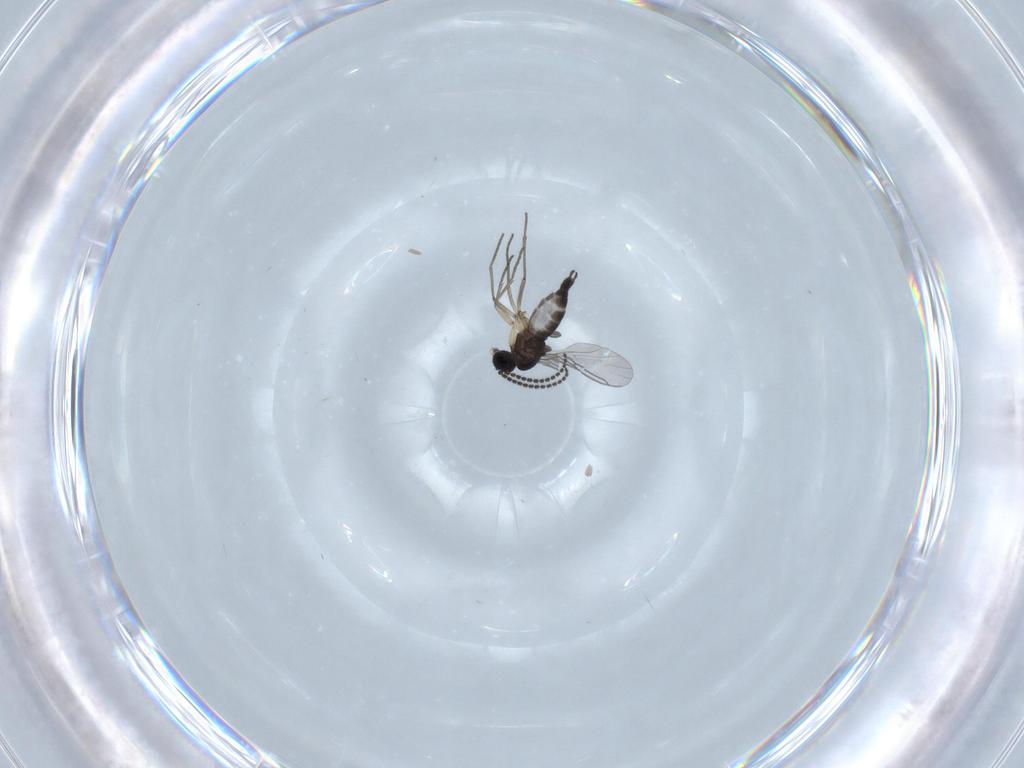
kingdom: Animalia
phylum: Arthropoda
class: Insecta
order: Diptera
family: Sciaridae
